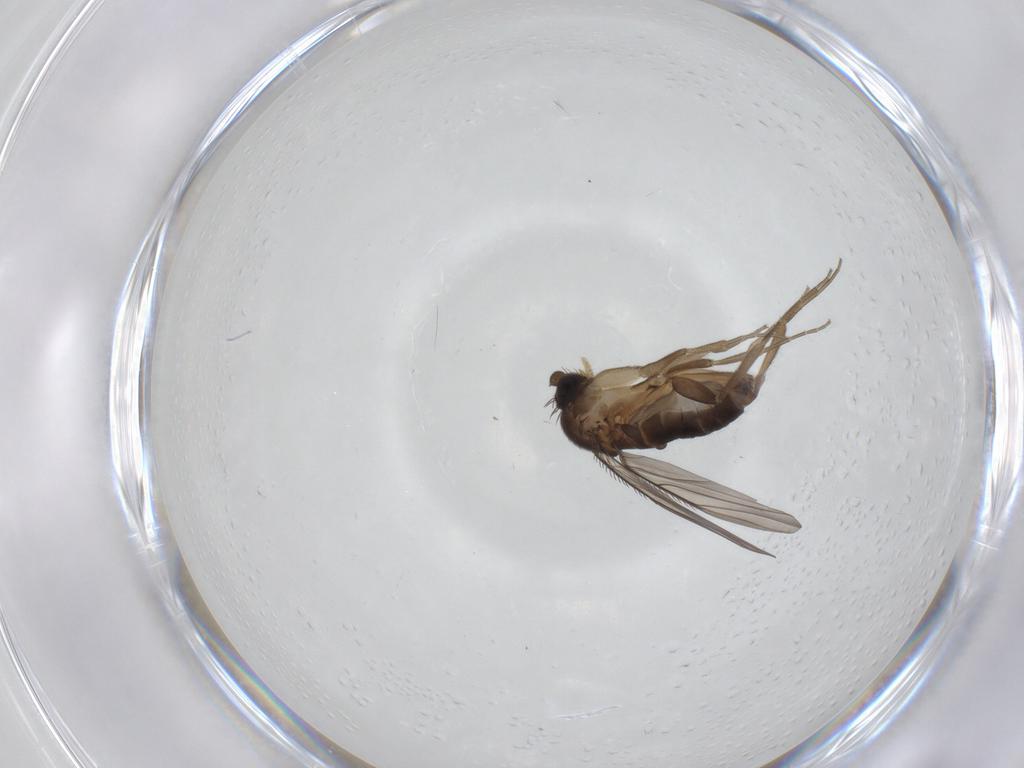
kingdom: Animalia
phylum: Arthropoda
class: Insecta
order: Diptera
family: Phoridae
